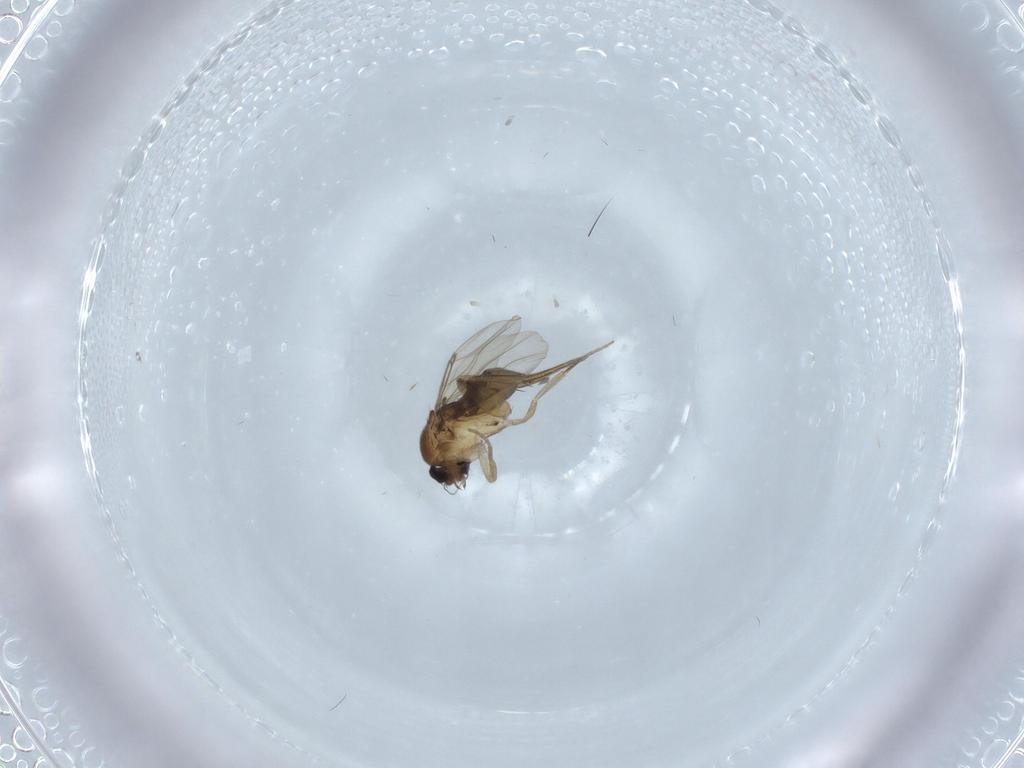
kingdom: Animalia
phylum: Arthropoda
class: Insecta
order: Diptera
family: Phoridae
